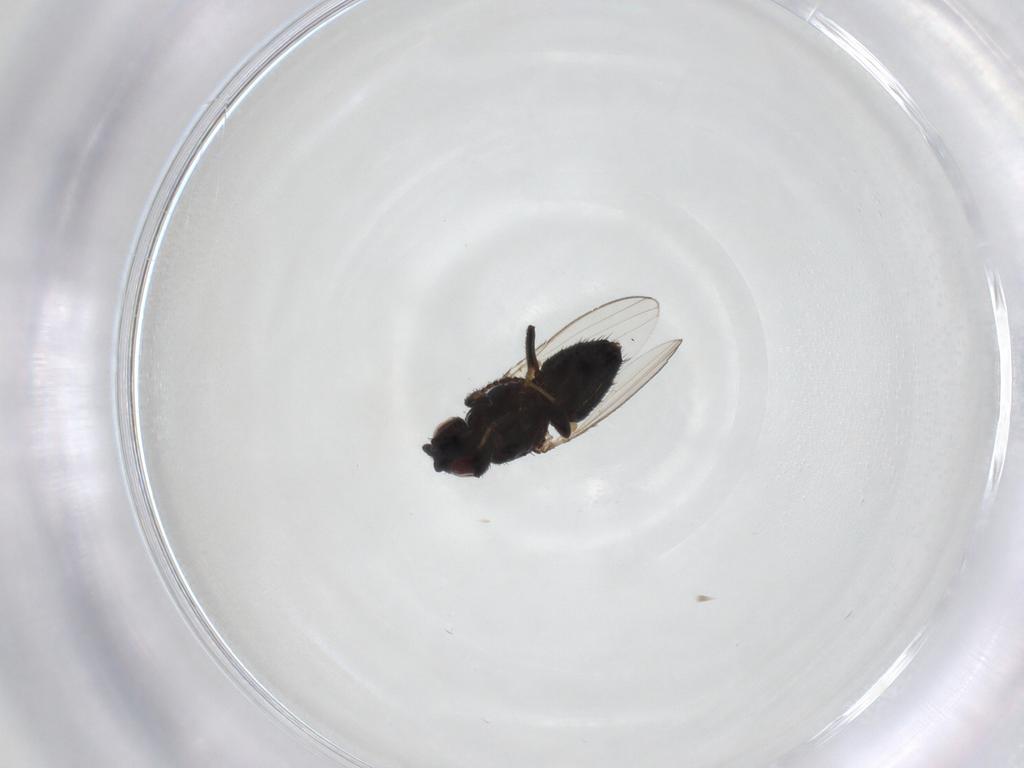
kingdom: Animalia
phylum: Arthropoda
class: Insecta
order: Diptera
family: Milichiidae
